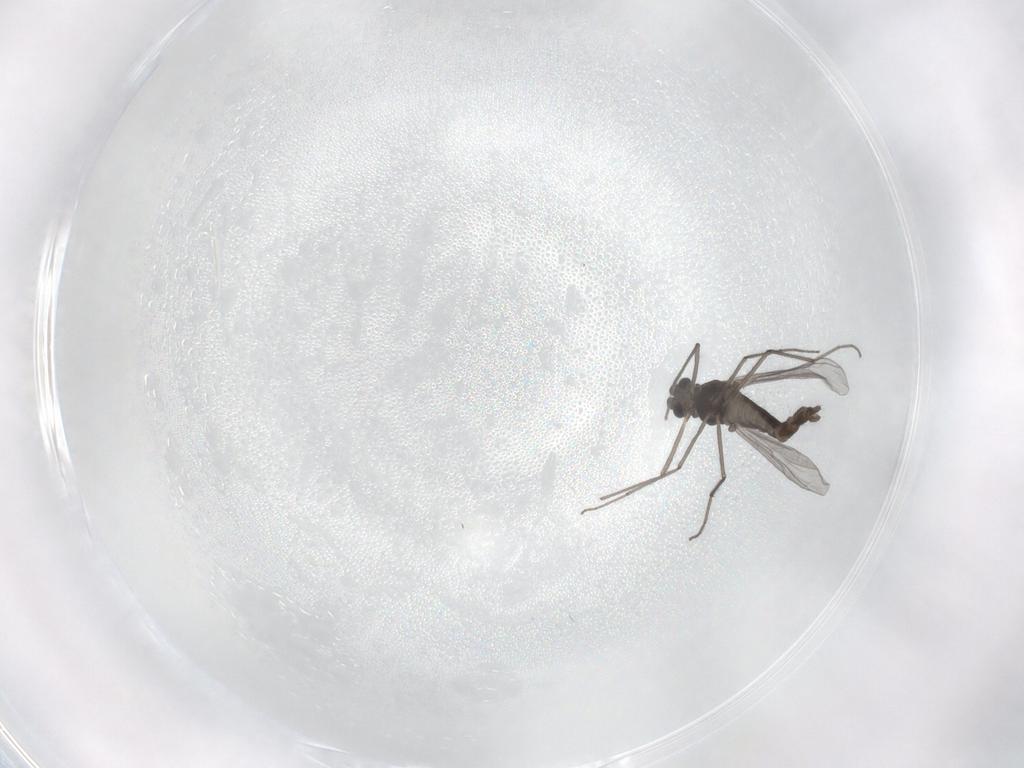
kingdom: Animalia
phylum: Arthropoda
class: Insecta
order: Diptera
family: Chironomidae
